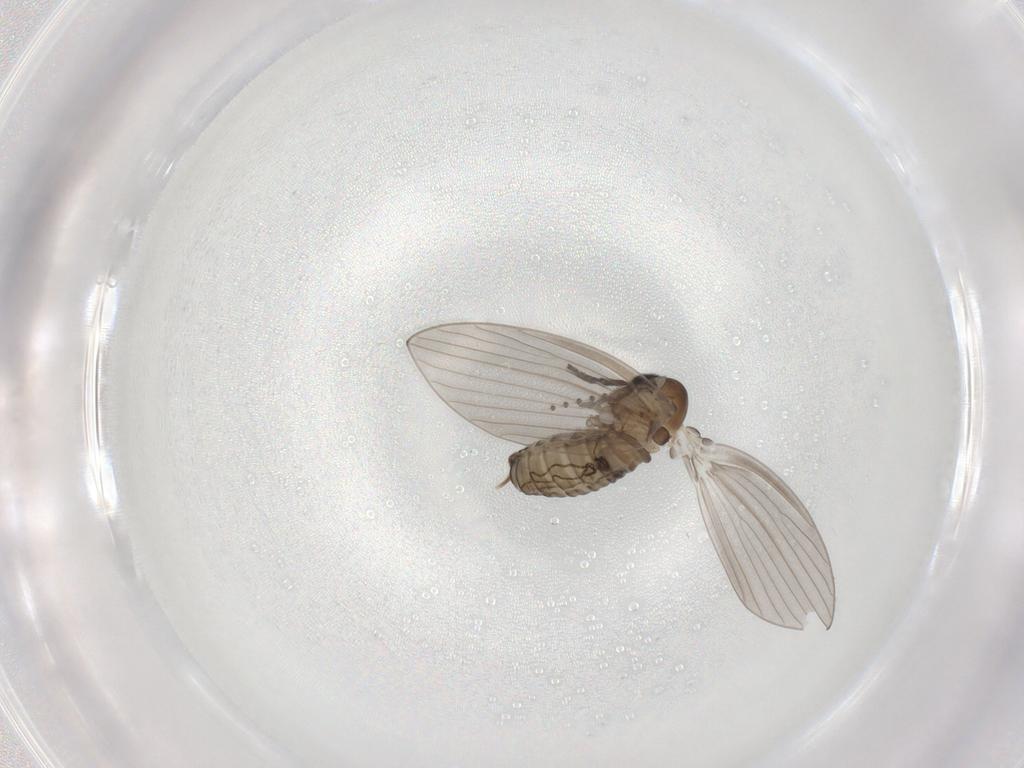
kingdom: Animalia
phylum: Arthropoda
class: Insecta
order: Diptera
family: Psychodidae
